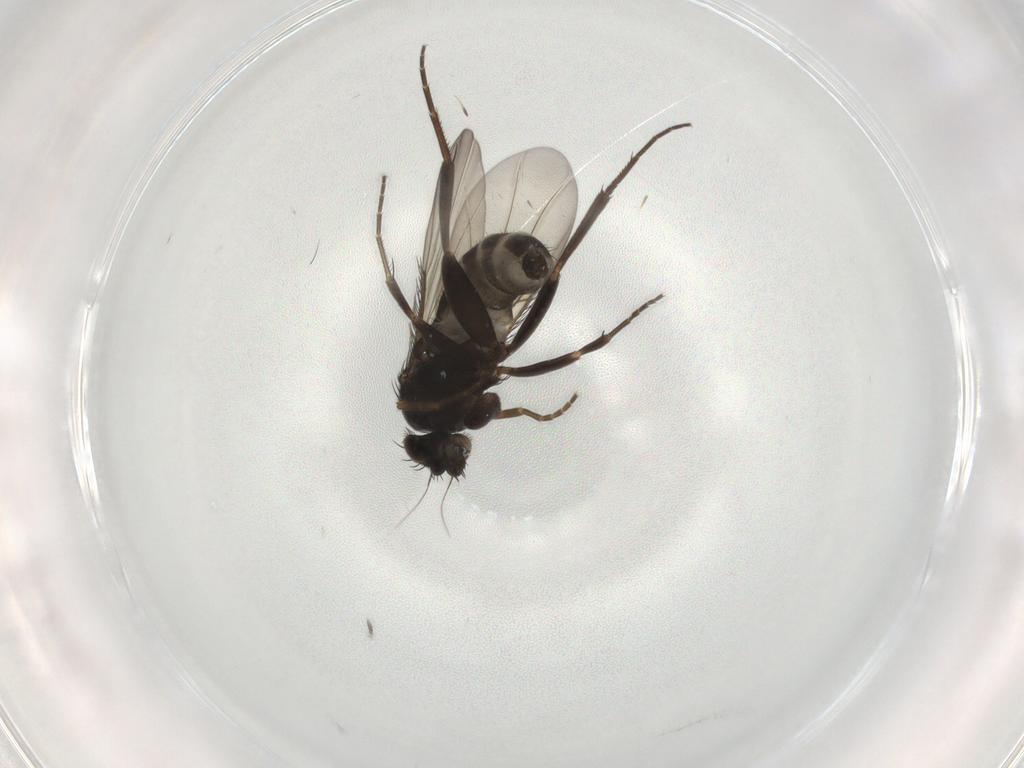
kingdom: Animalia
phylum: Arthropoda
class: Insecta
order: Diptera
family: Phoridae
